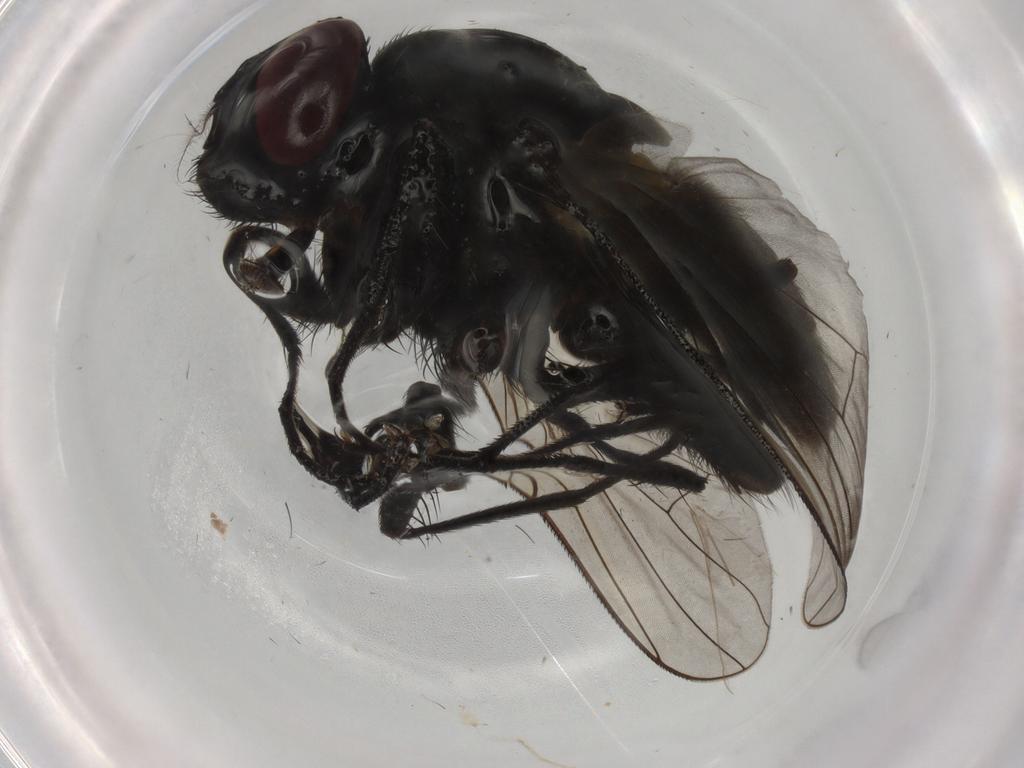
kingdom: Animalia
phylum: Arthropoda
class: Insecta
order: Diptera
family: Muscidae
